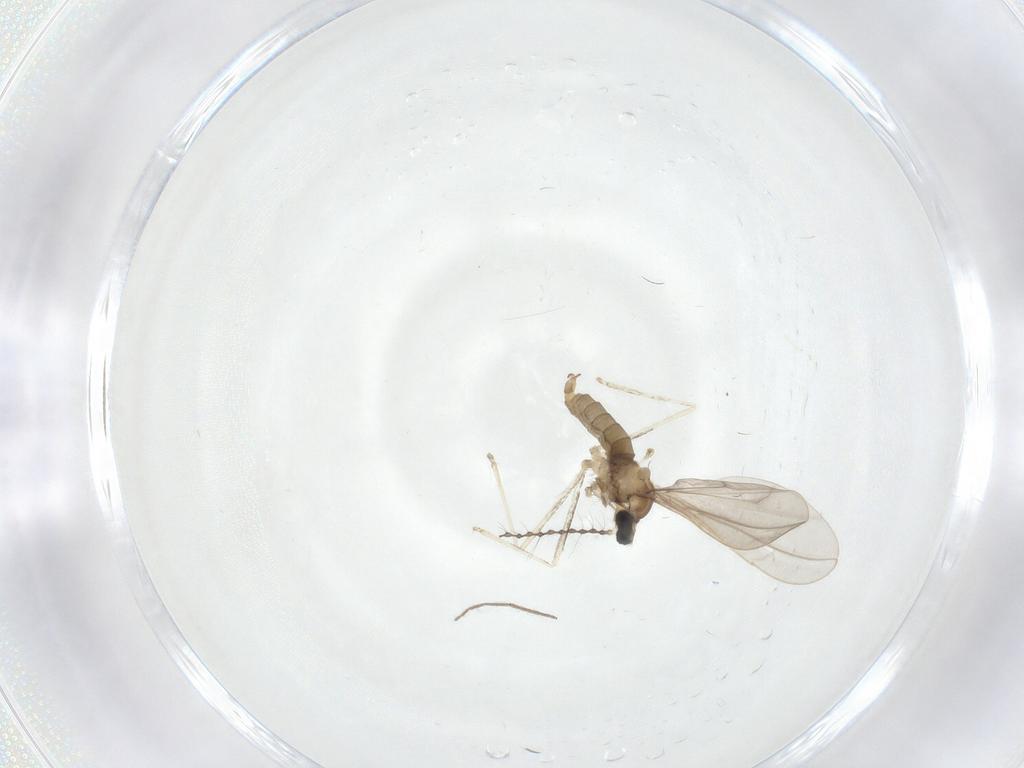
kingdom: Animalia
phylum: Arthropoda
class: Insecta
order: Diptera
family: Cecidomyiidae
